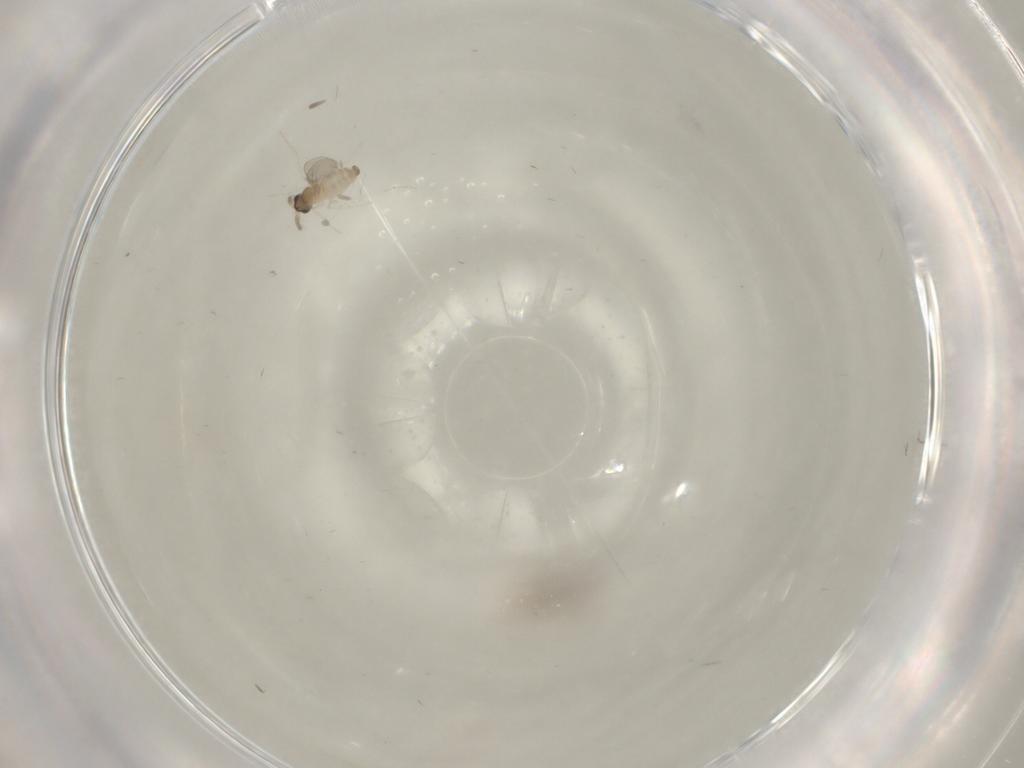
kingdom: Animalia
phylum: Arthropoda
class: Insecta
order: Diptera
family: Cecidomyiidae
